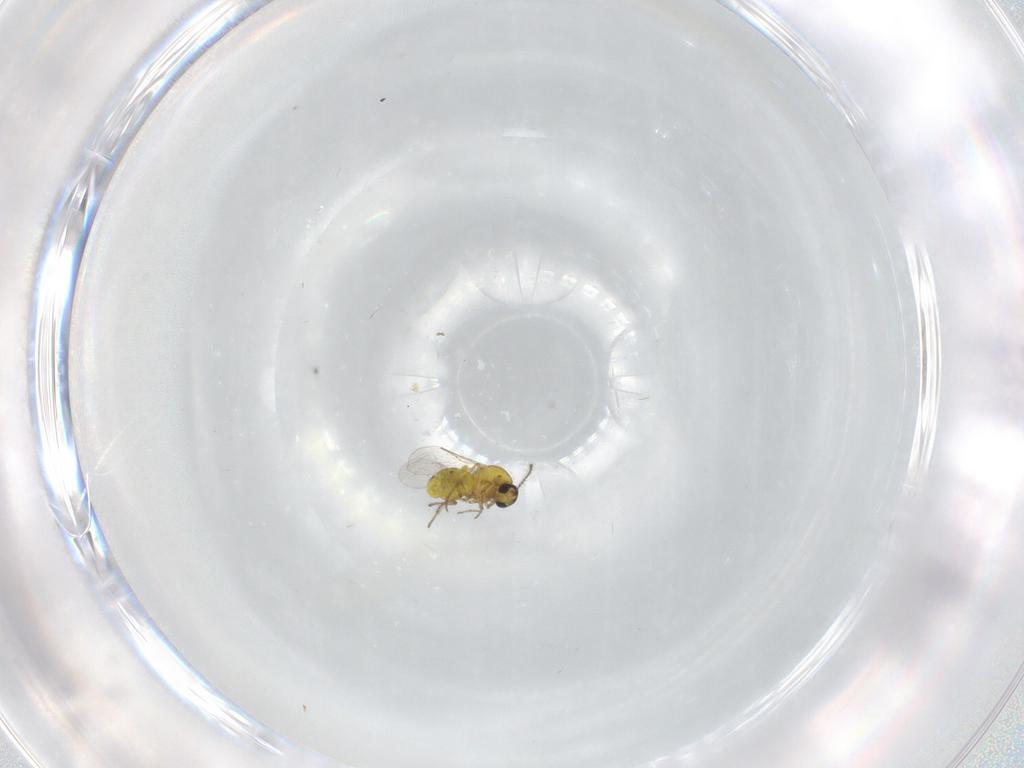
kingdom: Animalia
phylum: Arthropoda
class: Insecta
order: Diptera
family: Ceratopogonidae
